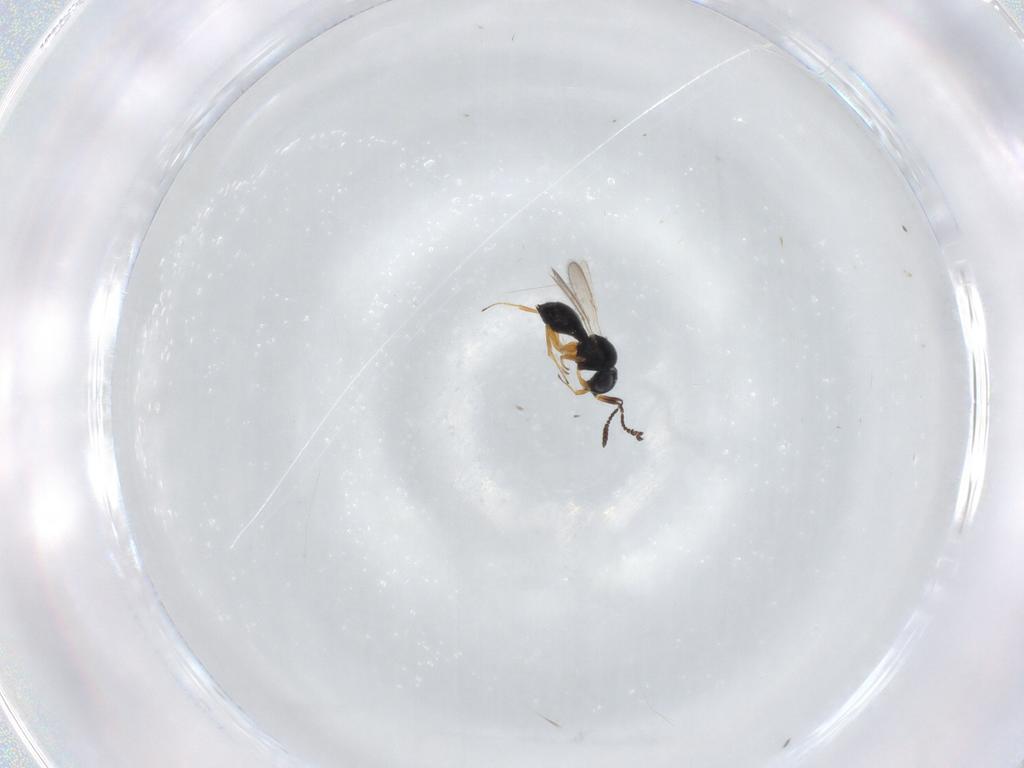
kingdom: Animalia
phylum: Arthropoda
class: Insecta
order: Hymenoptera
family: Scelionidae
